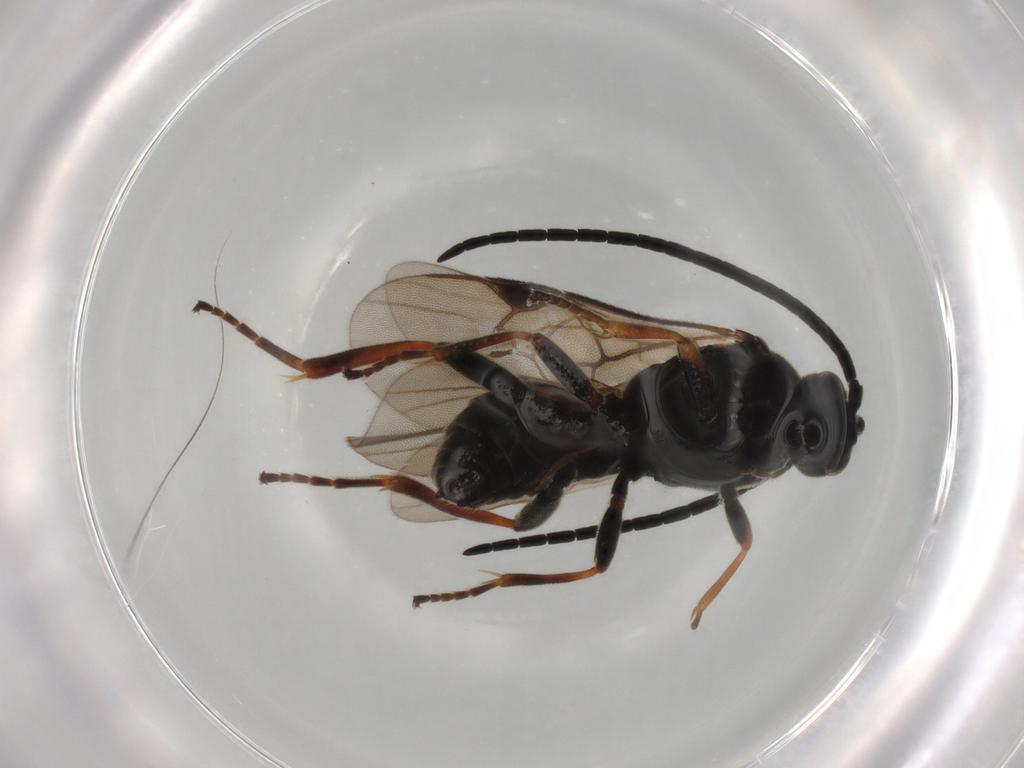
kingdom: Animalia
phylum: Arthropoda
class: Insecta
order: Hymenoptera
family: Braconidae
